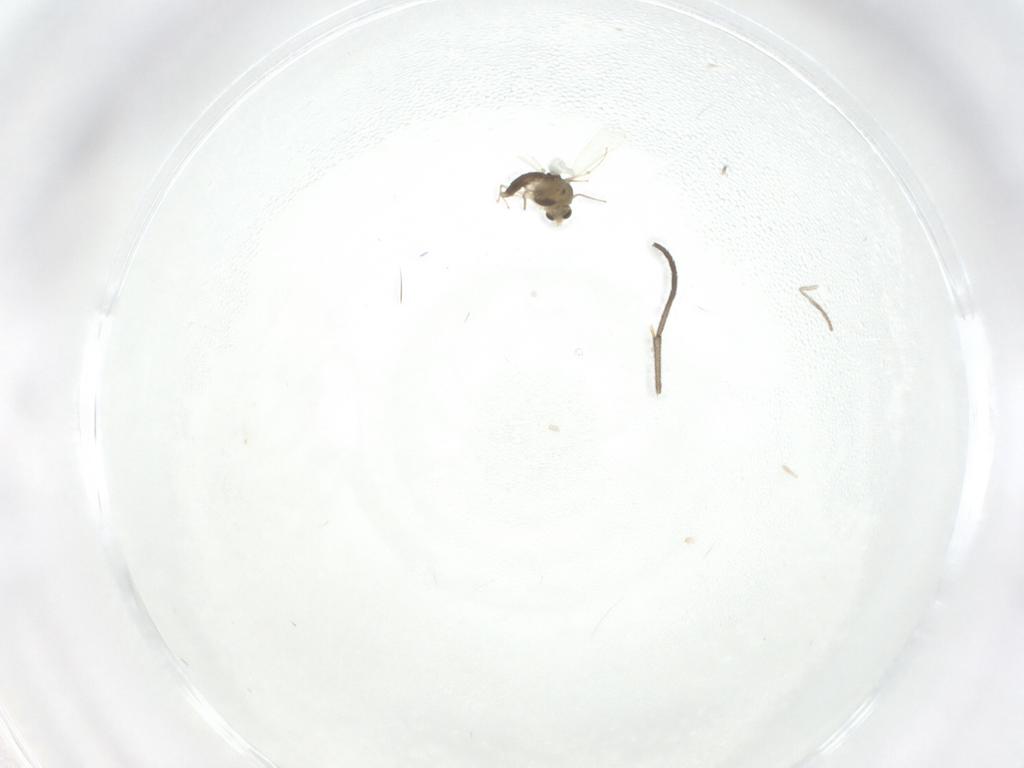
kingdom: Animalia
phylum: Arthropoda
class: Insecta
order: Diptera
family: Chironomidae
